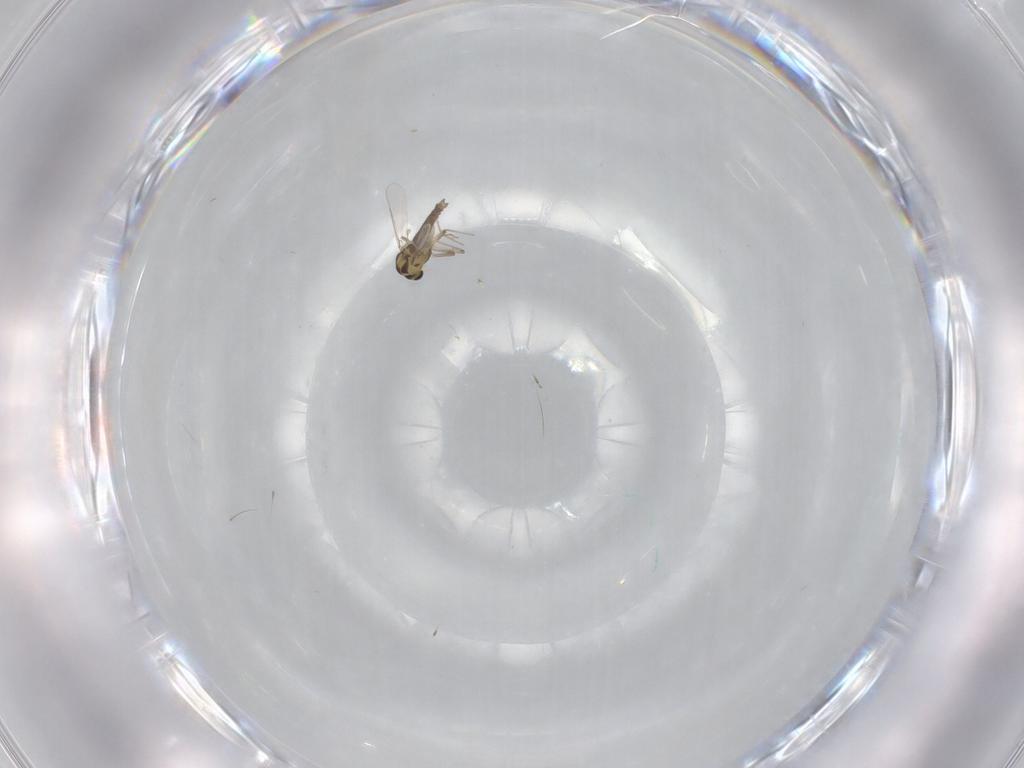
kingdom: Animalia
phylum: Arthropoda
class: Insecta
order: Diptera
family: Chironomidae
